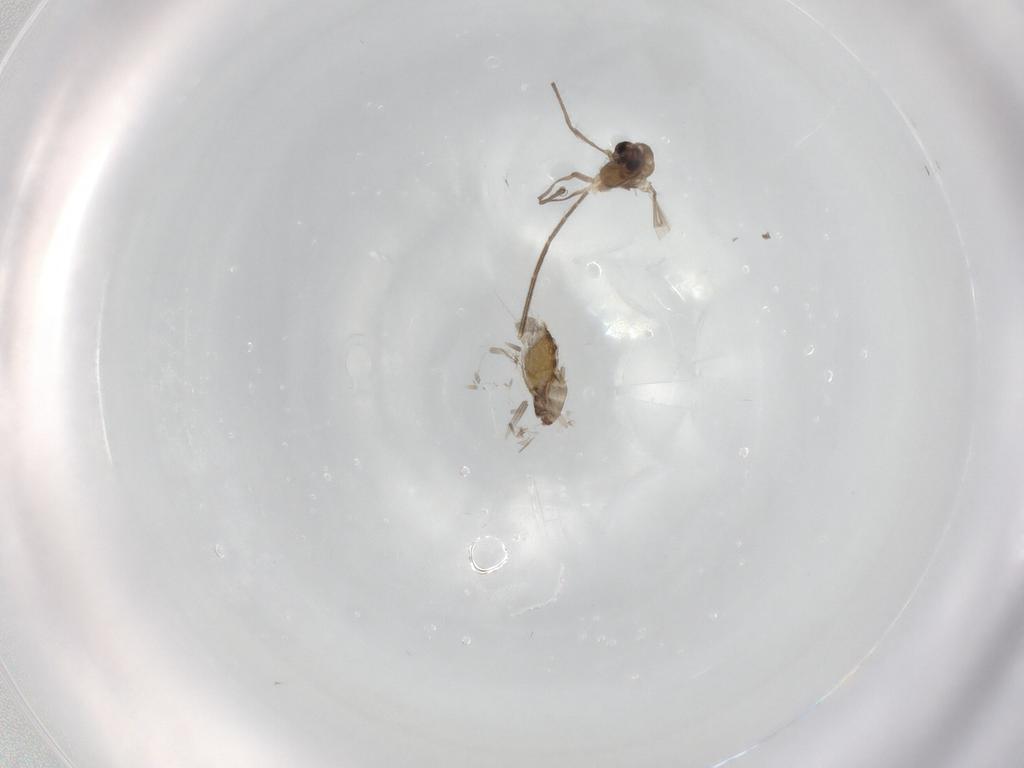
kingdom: Animalia
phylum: Arthropoda
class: Insecta
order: Diptera
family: Chironomidae
